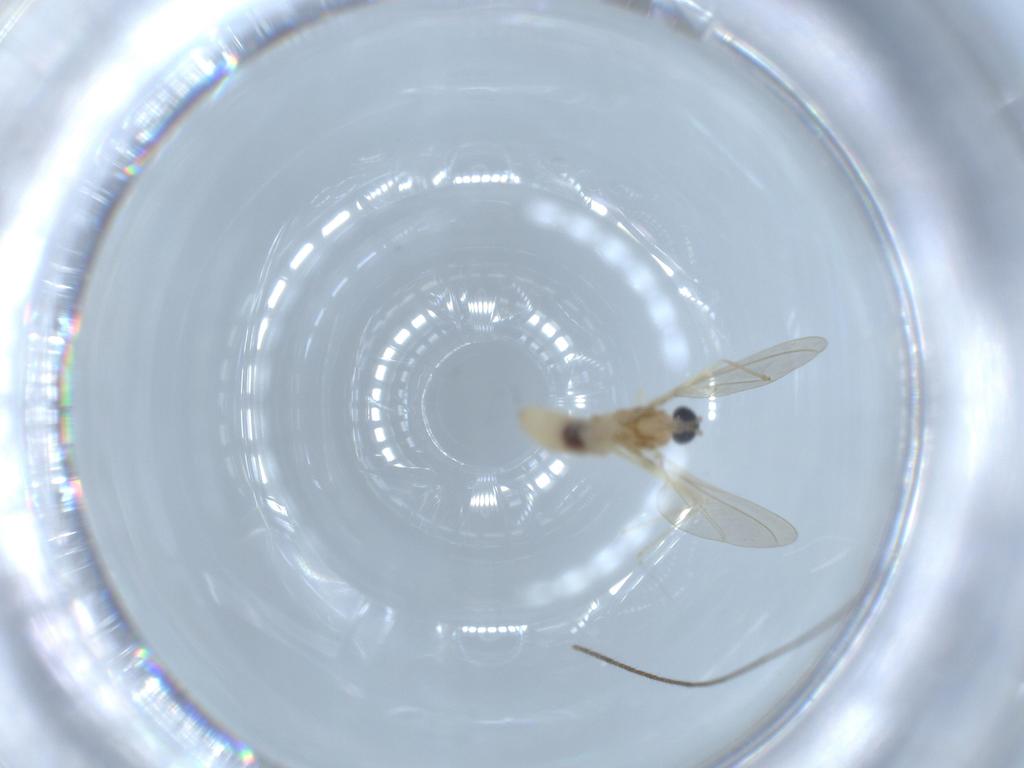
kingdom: Animalia
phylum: Arthropoda
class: Insecta
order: Diptera
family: Cecidomyiidae
